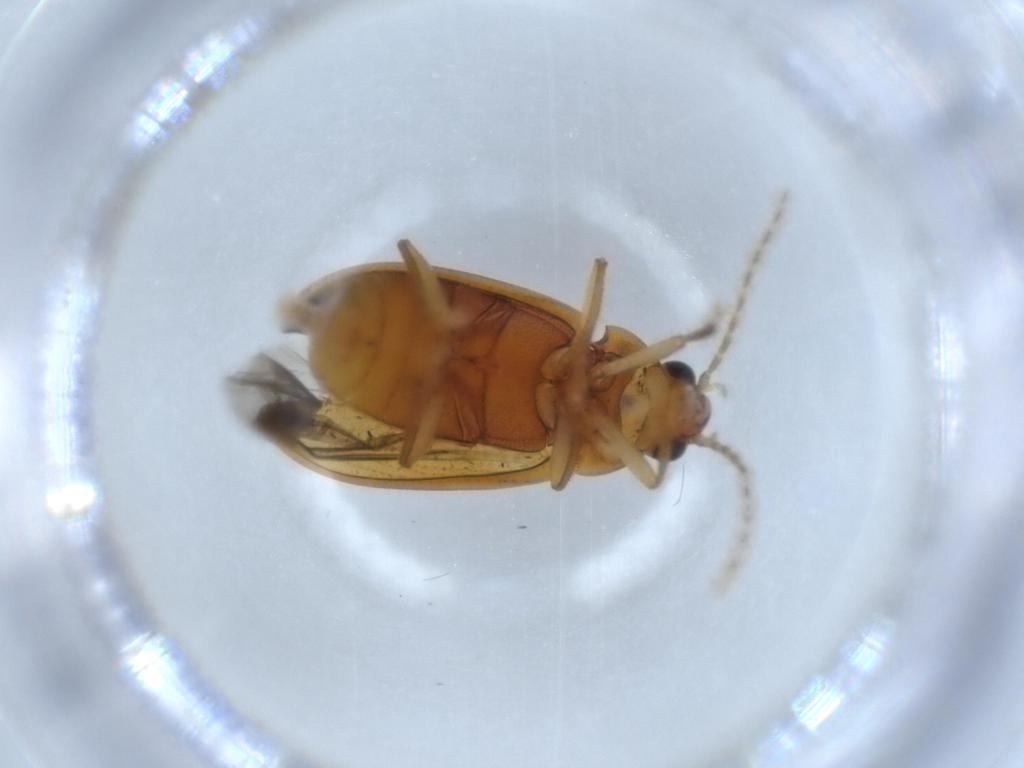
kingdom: Animalia
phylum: Arthropoda
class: Insecta
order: Coleoptera
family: Ptilodactylidae
